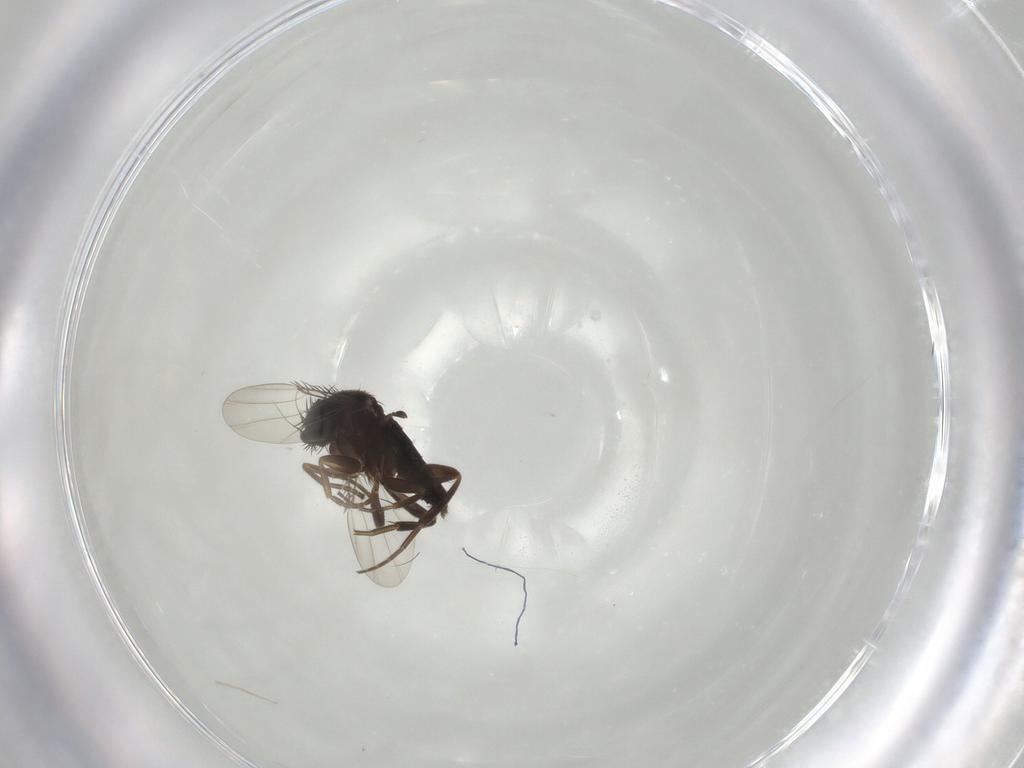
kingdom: Animalia
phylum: Arthropoda
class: Insecta
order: Diptera
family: Phoridae
